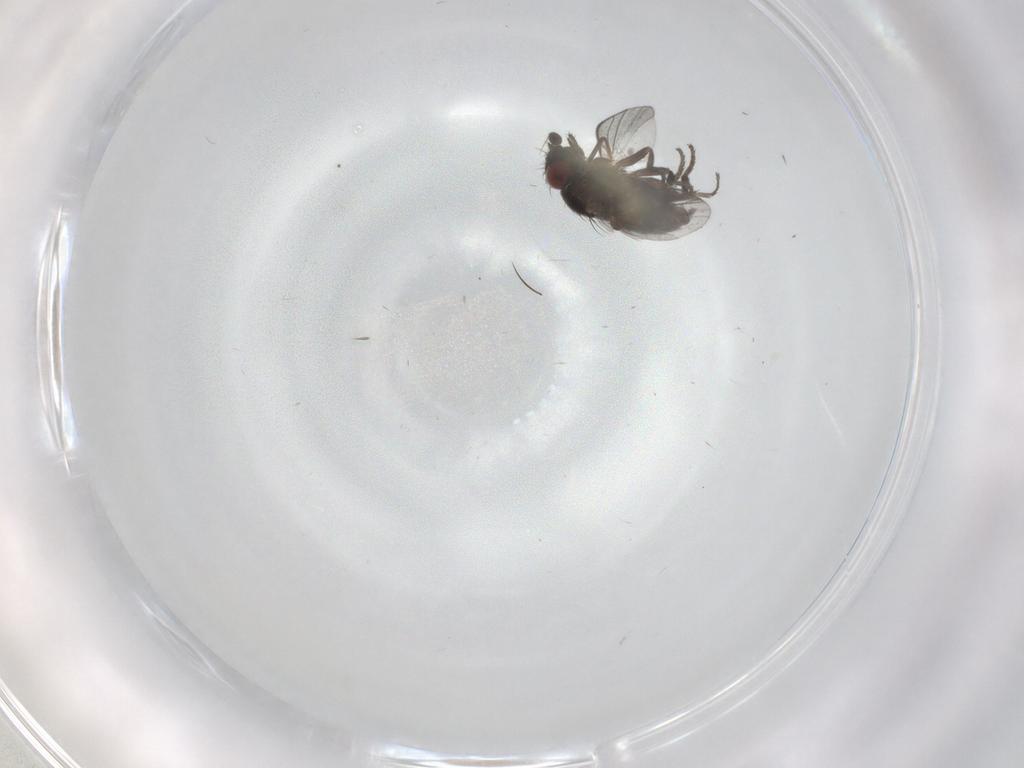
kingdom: Animalia
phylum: Arthropoda
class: Insecta
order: Diptera
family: Milichiidae
